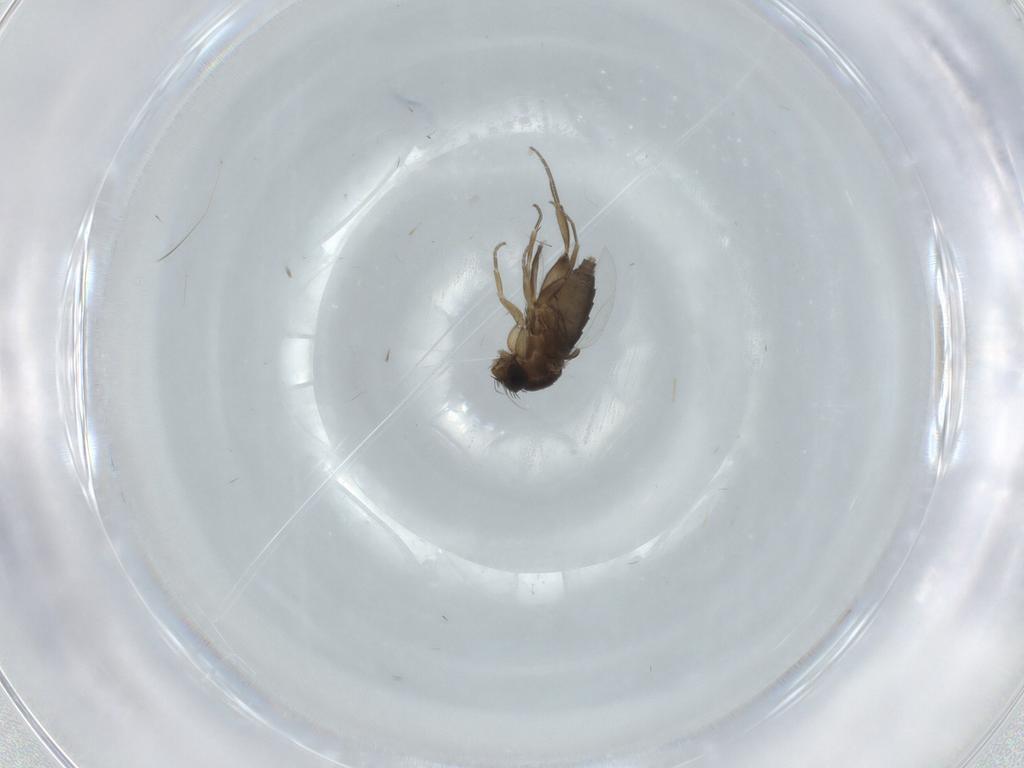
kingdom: Animalia
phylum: Arthropoda
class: Insecta
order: Diptera
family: Phoridae
